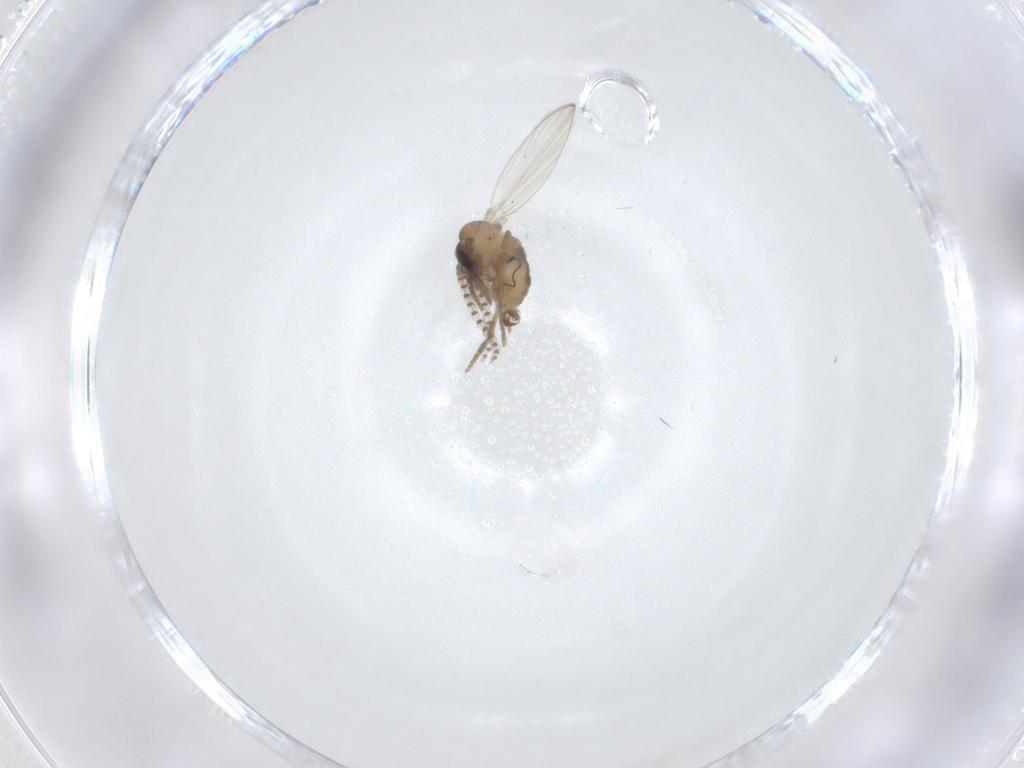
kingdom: Animalia
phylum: Arthropoda
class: Insecta
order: Diptera
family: Psychodidae
